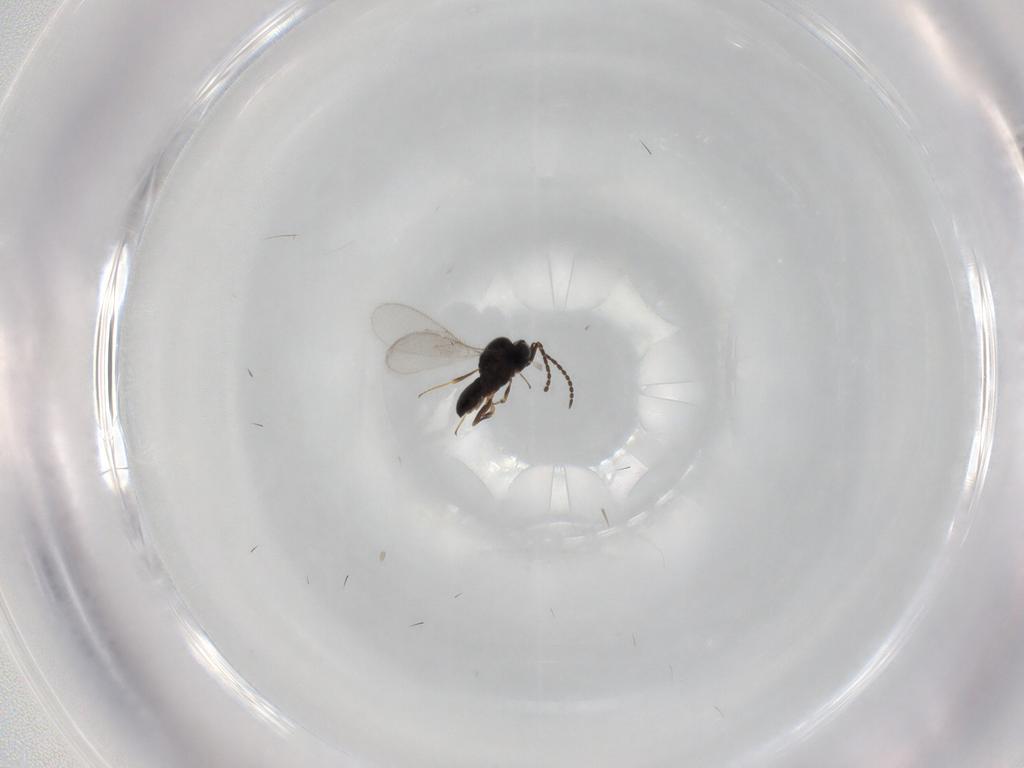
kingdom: Animalia
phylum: Arthropoda
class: Insecta
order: Hymenoptera
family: Scelionidae
